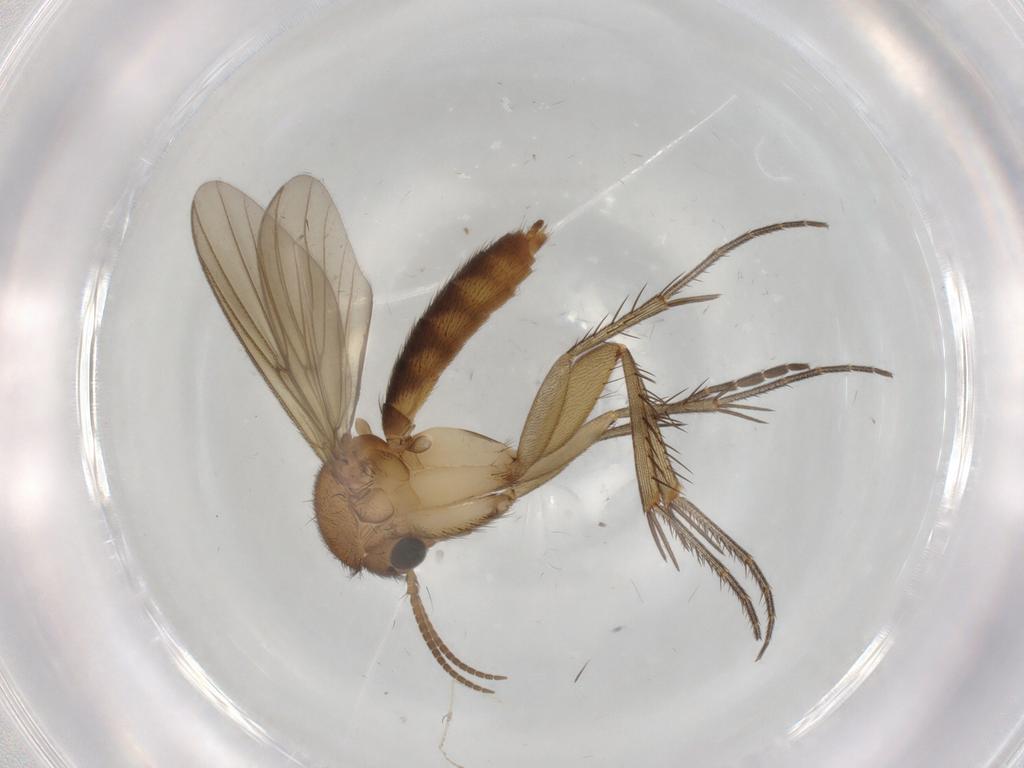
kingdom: Animalia
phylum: Arthropoda
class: Insecta
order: Diptera
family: Mycetophilidae
